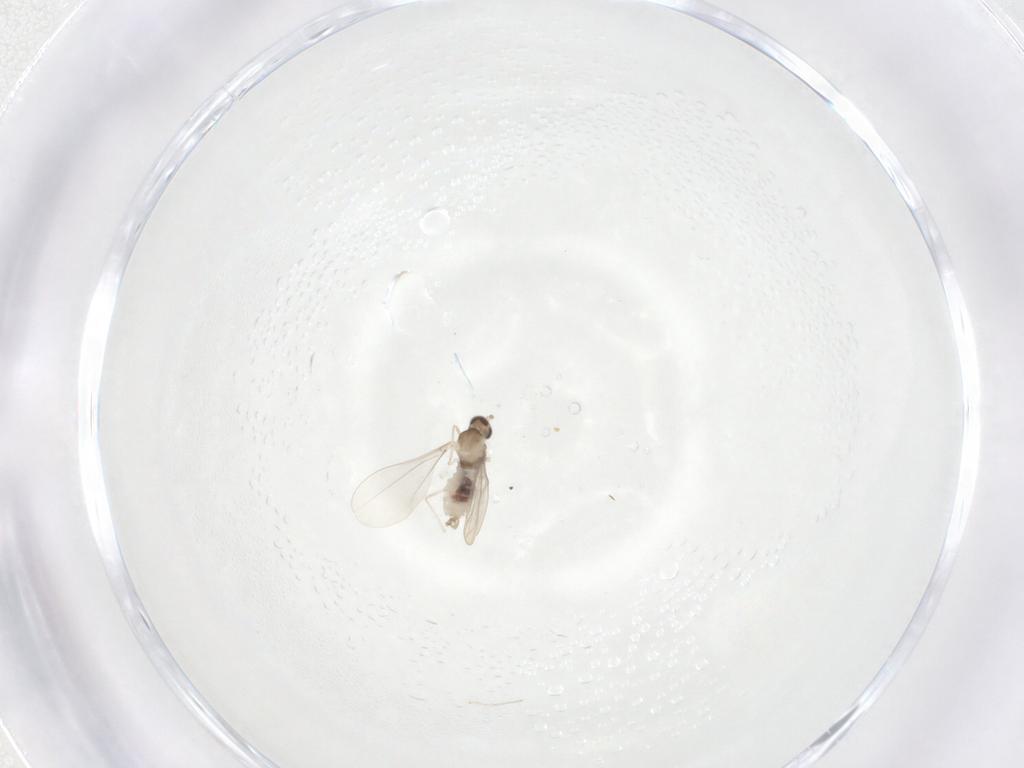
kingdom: Animalia
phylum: Arthropoda
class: Insecta
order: Diptera
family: Cecidomyiidae
